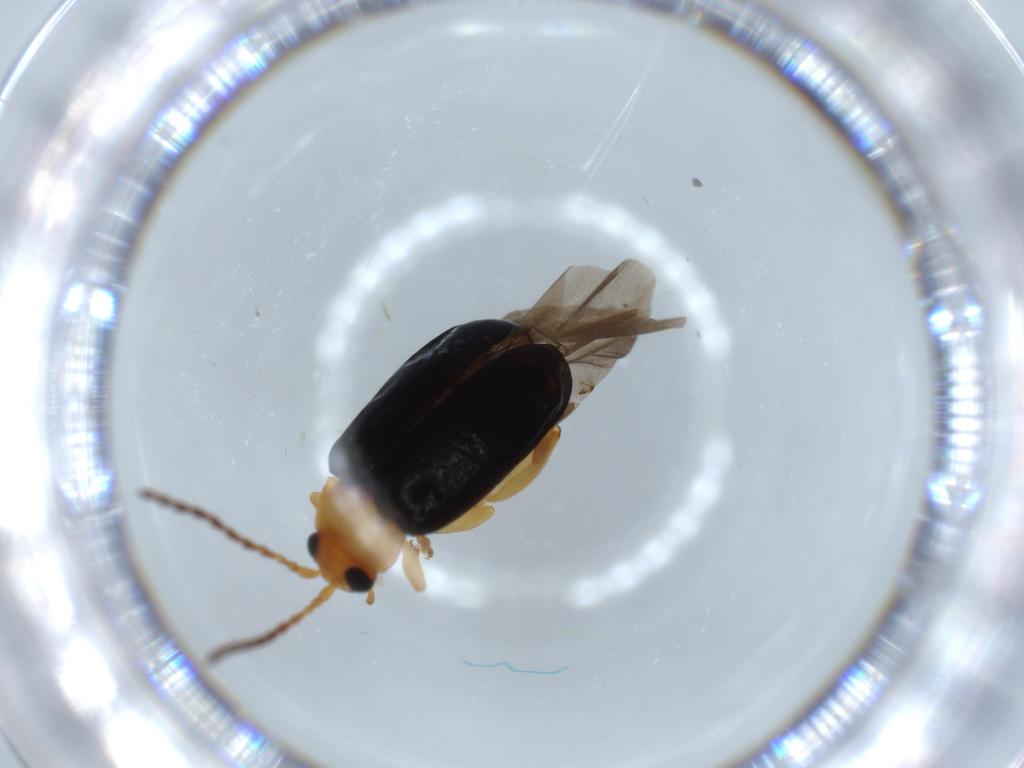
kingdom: Animalia
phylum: Arthropoda
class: Insecta
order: Coleoptera
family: Chrysomelidae
